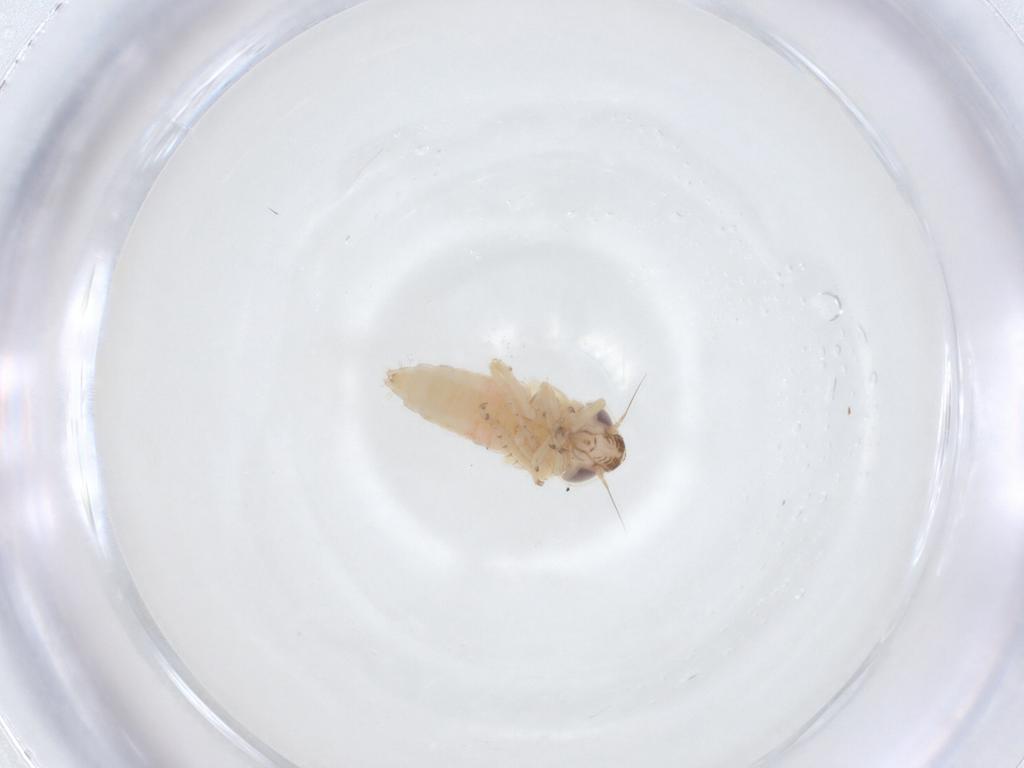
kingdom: Animalia
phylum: Arthropoda
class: Insecta
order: Hemiptera
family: Cicadellidae
